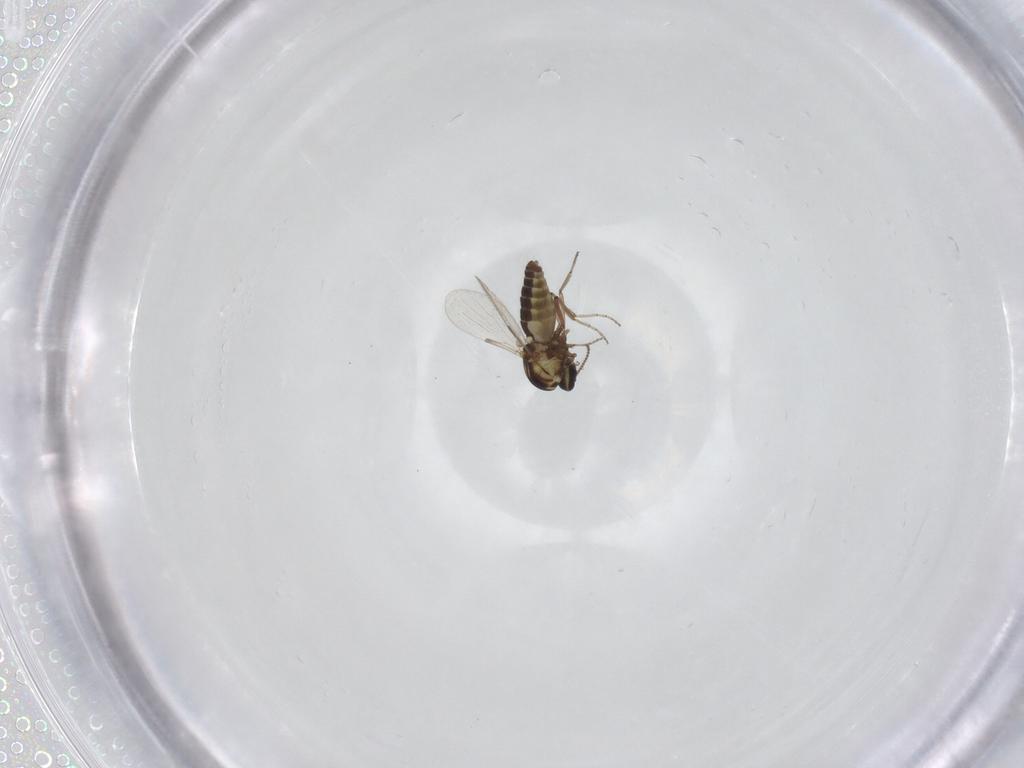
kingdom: Animalia
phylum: Arthropoda
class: Insecta
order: Diptera
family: Ceratopogonidae
